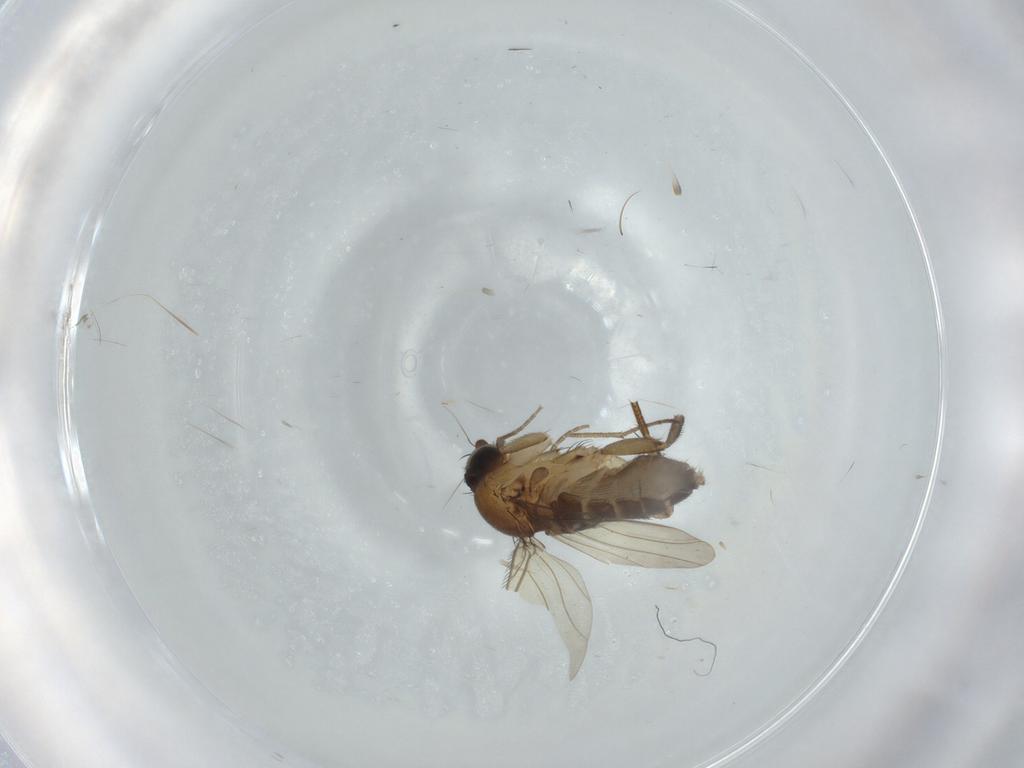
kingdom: Animalia
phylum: Arthropoda
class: Insecta
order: Diptera
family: Phoridae
